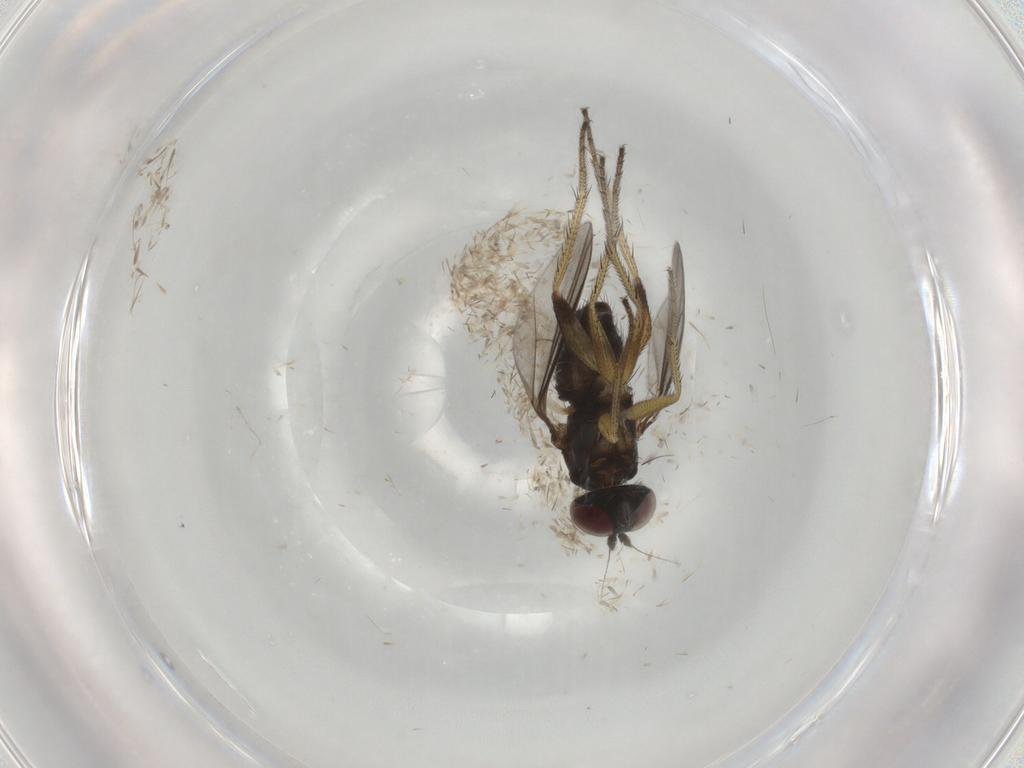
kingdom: Animalia
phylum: Arthropoda
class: Insecta
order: Diptera
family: Dolichopodidae
